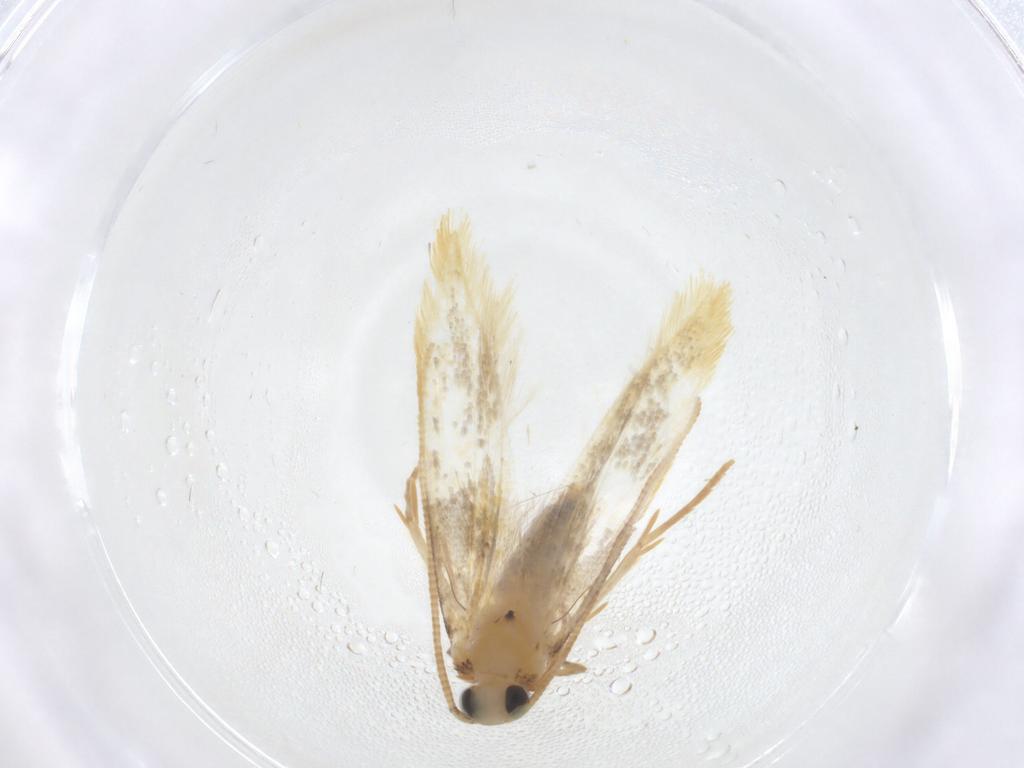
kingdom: Animalia
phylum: Arthropoda
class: Insecta
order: Lepidoptera
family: Nepticulidae
